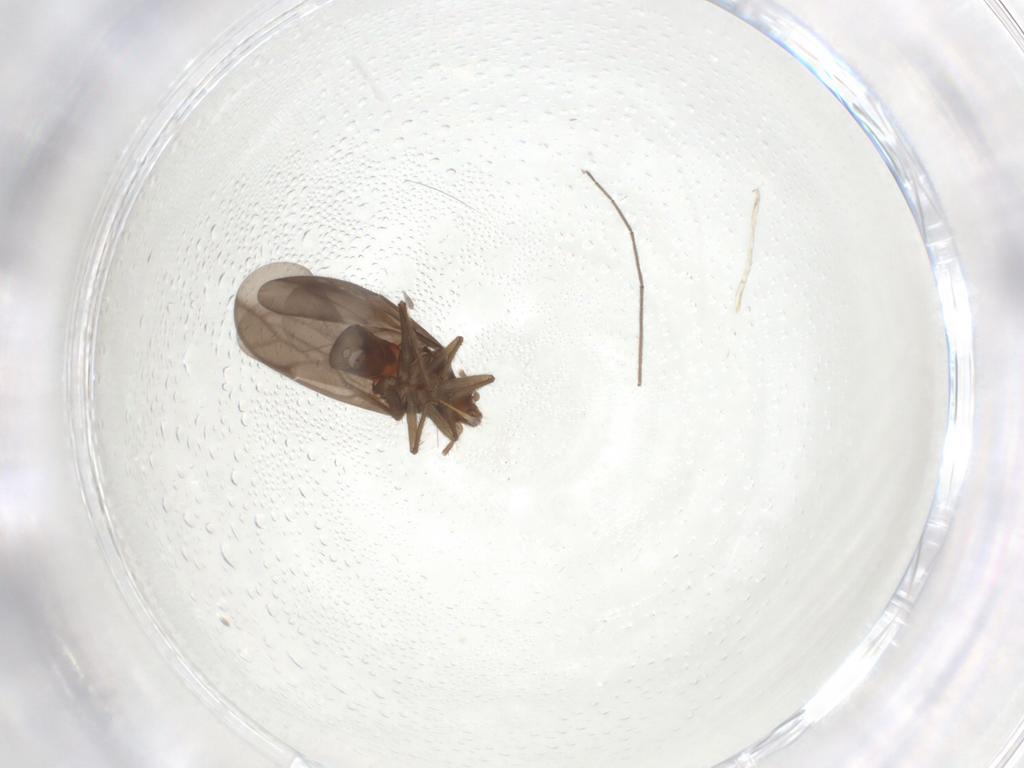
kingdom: Animalia
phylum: Arthropoda
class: Insecta
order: Hemiptera
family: Ceratocombidae
